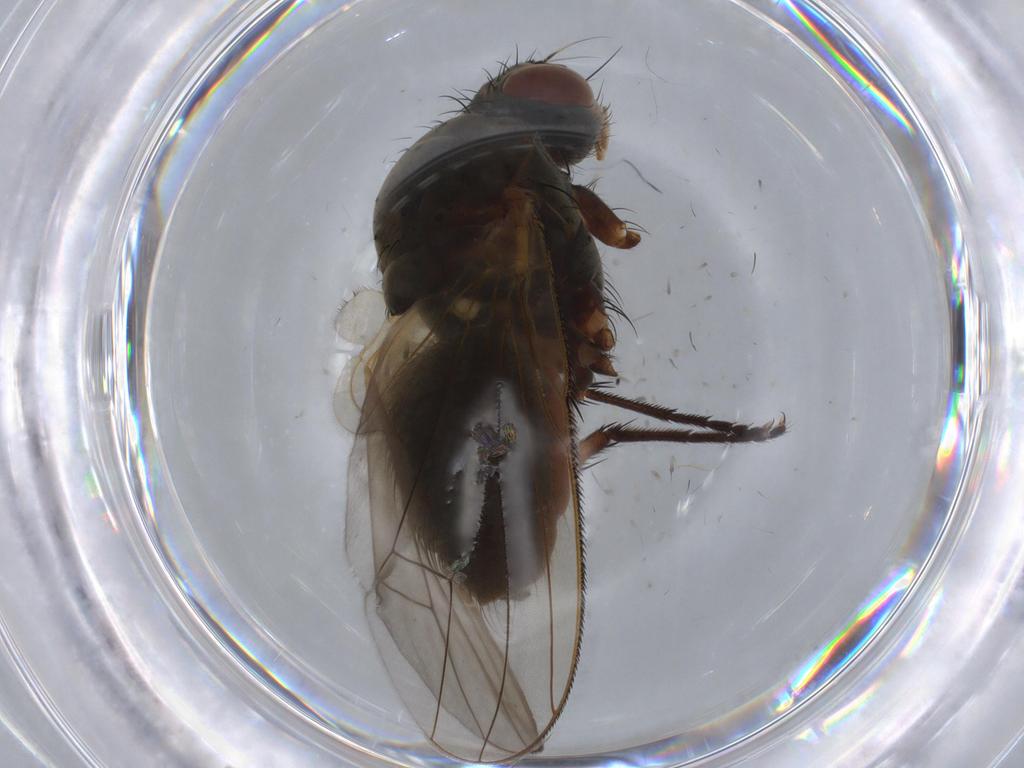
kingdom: Animalia
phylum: Arthropoda
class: Insecta
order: Diptera
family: Anthomyiidae
